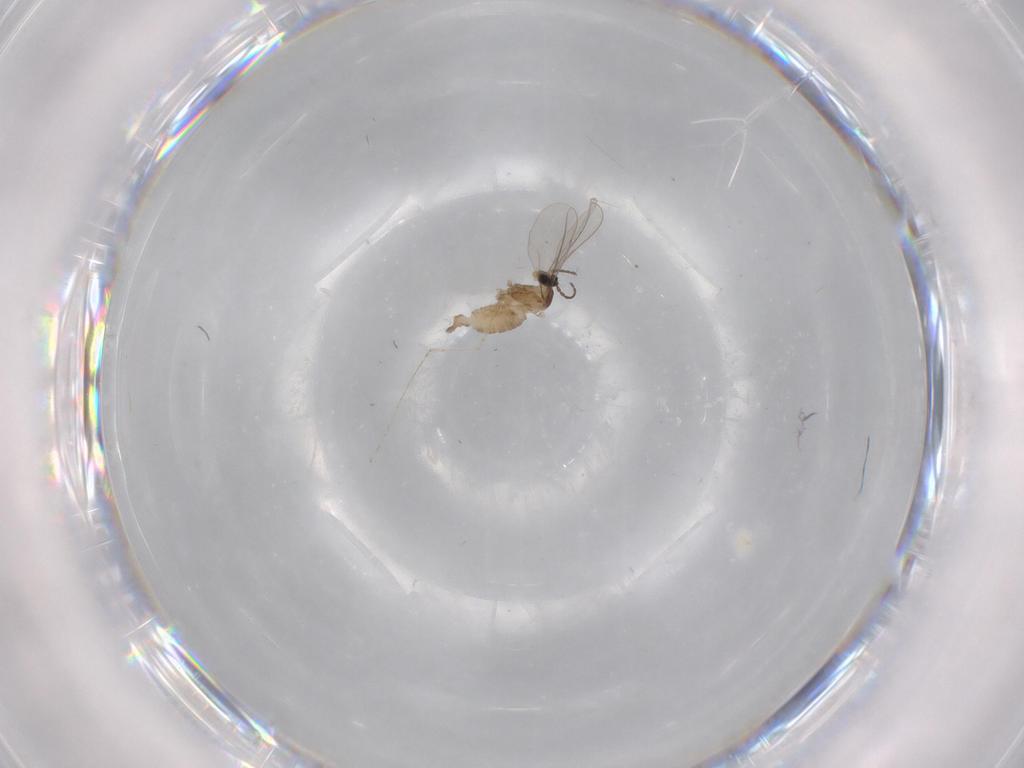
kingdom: Animalia
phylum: Arthropoda
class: Insecta
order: Diptera
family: Cecidomyiidae
